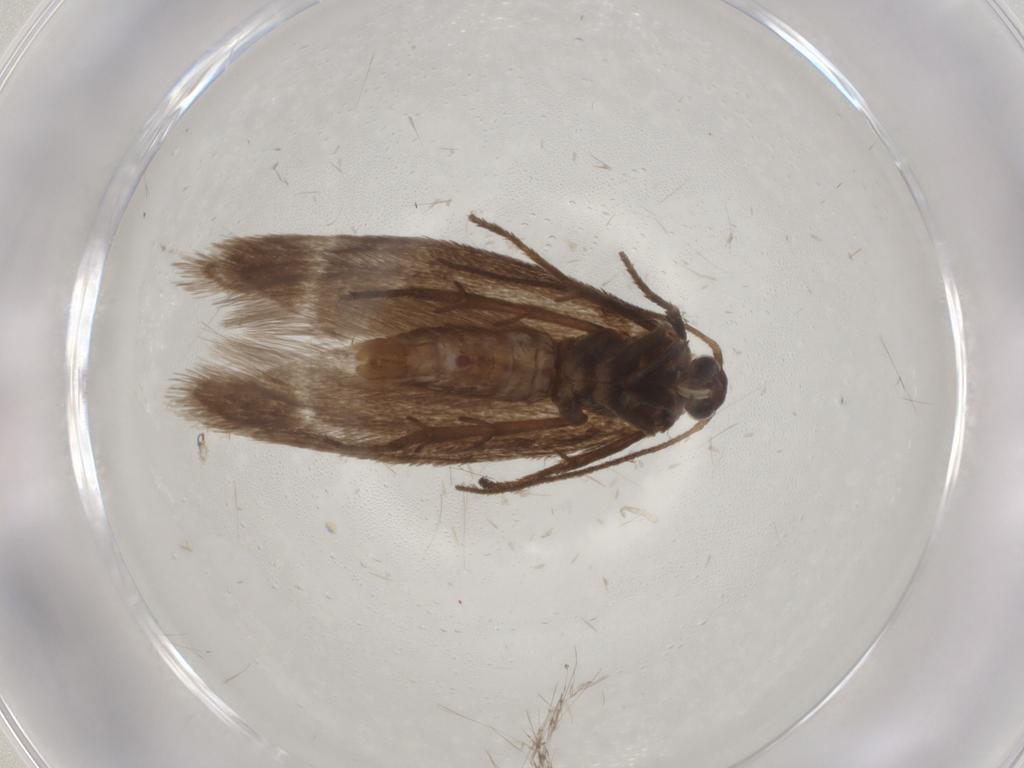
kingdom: Animalia
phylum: Arthropoda
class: Insecta
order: Lepidoptera
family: Limacodidae
